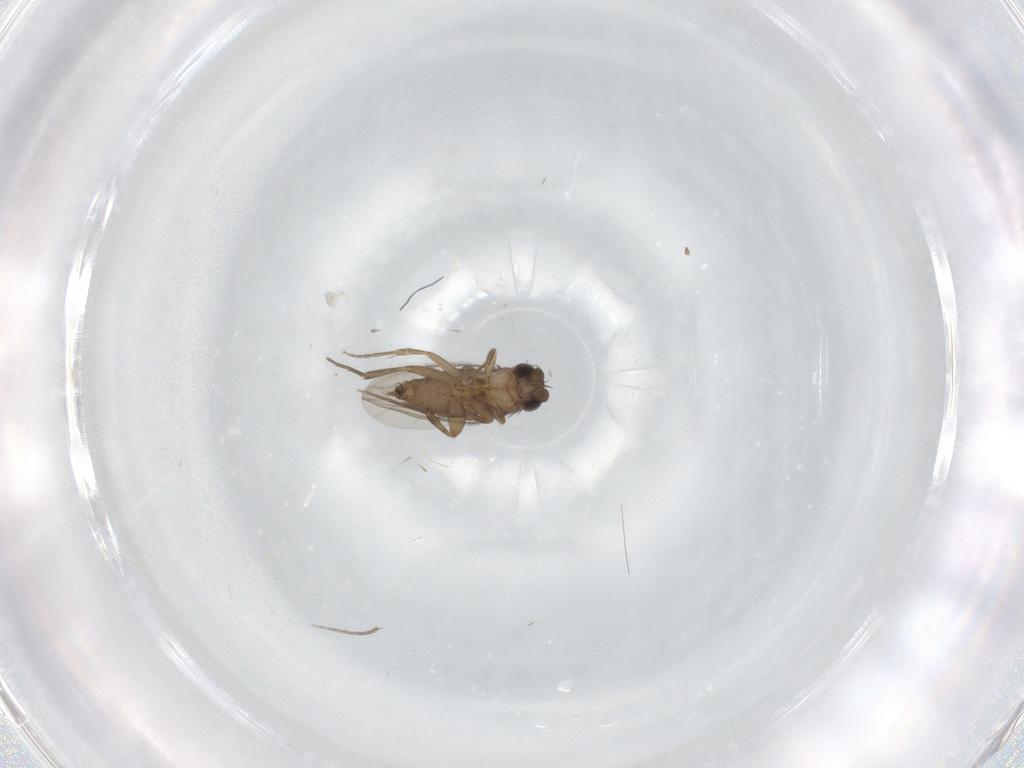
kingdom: Animalia
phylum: Arthropoda
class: Insecta
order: Diptera
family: Phoridae
